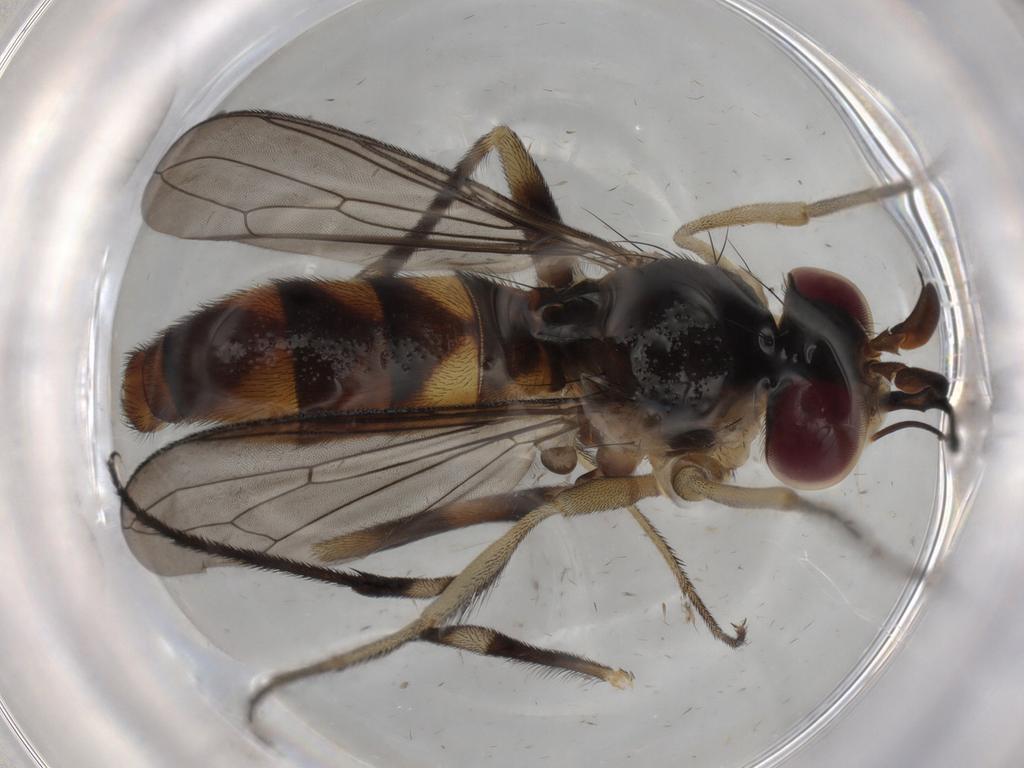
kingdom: Animalia
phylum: Arthropoda
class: Insecta
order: Diptera
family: Conopidae
